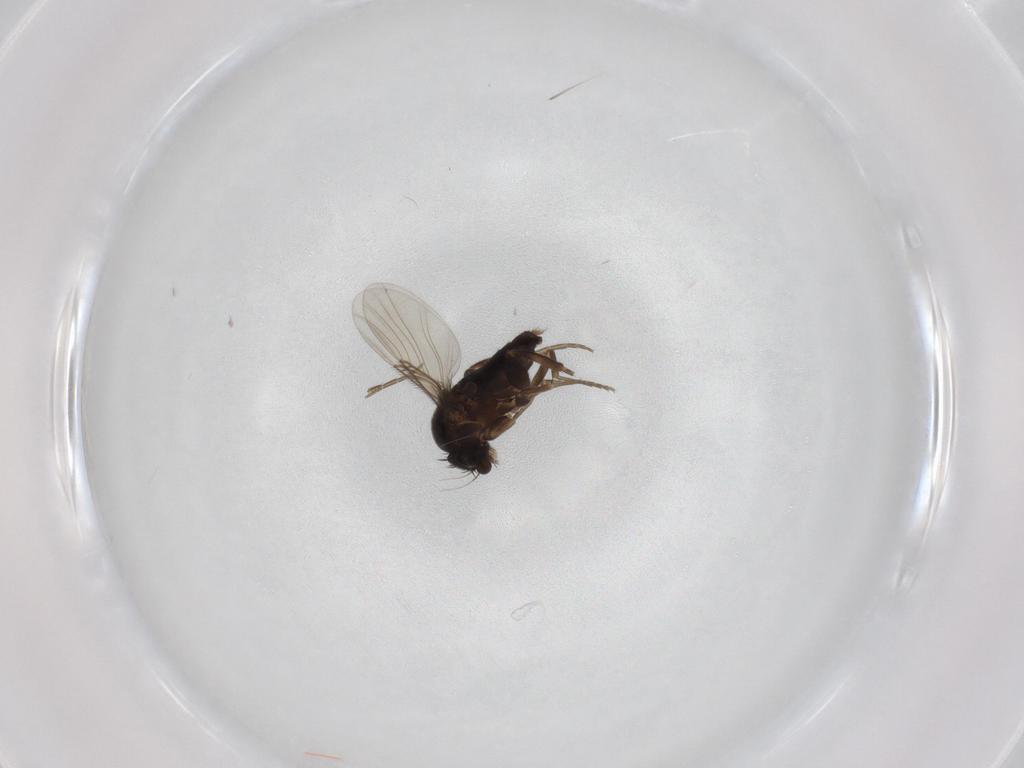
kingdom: Animalia
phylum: Arthropoda
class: Insecta
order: Diptera
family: Phoridae
